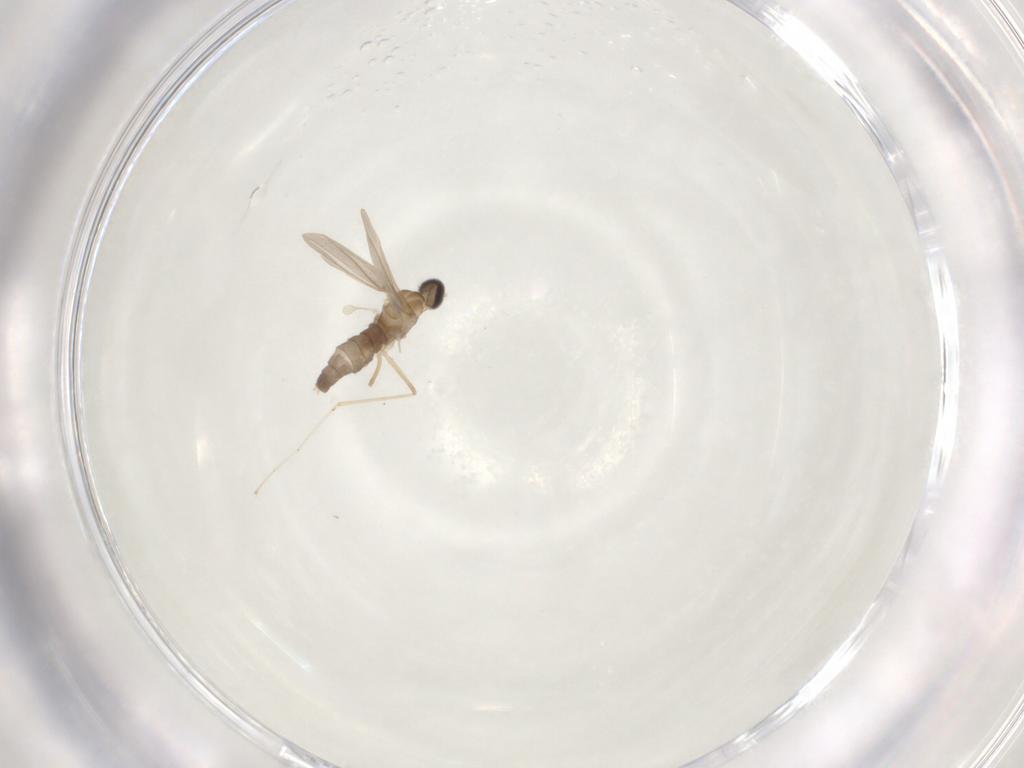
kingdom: Animalia
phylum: Arthropoda
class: Insecta
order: Diptera
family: Cecidomyiidae
